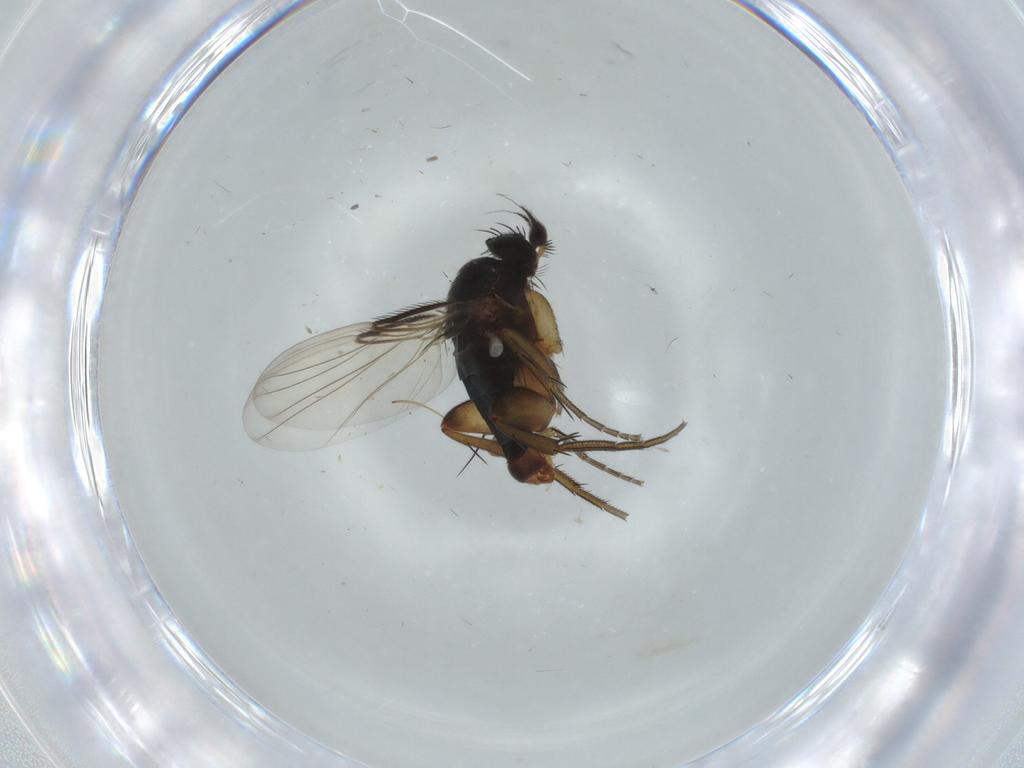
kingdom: Animalia
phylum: Arthropoda
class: Insecta
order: Diptera
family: Phoridae
